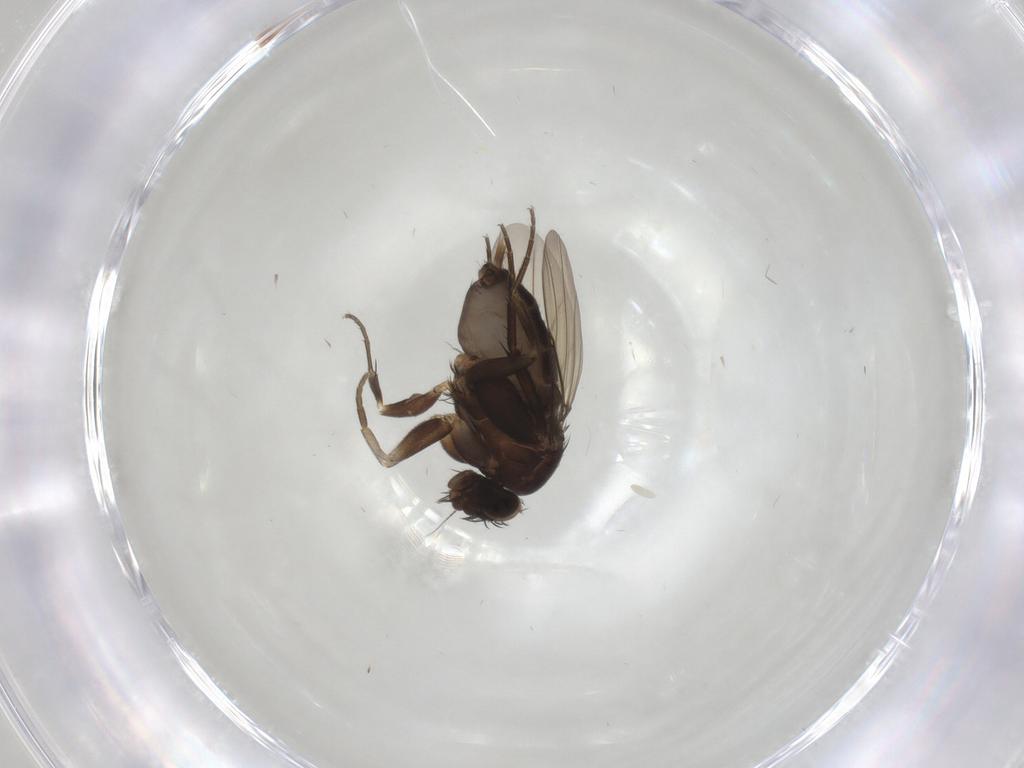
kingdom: Animalia
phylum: Arthropoda
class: Insecta
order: Diptera
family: Phoridae
